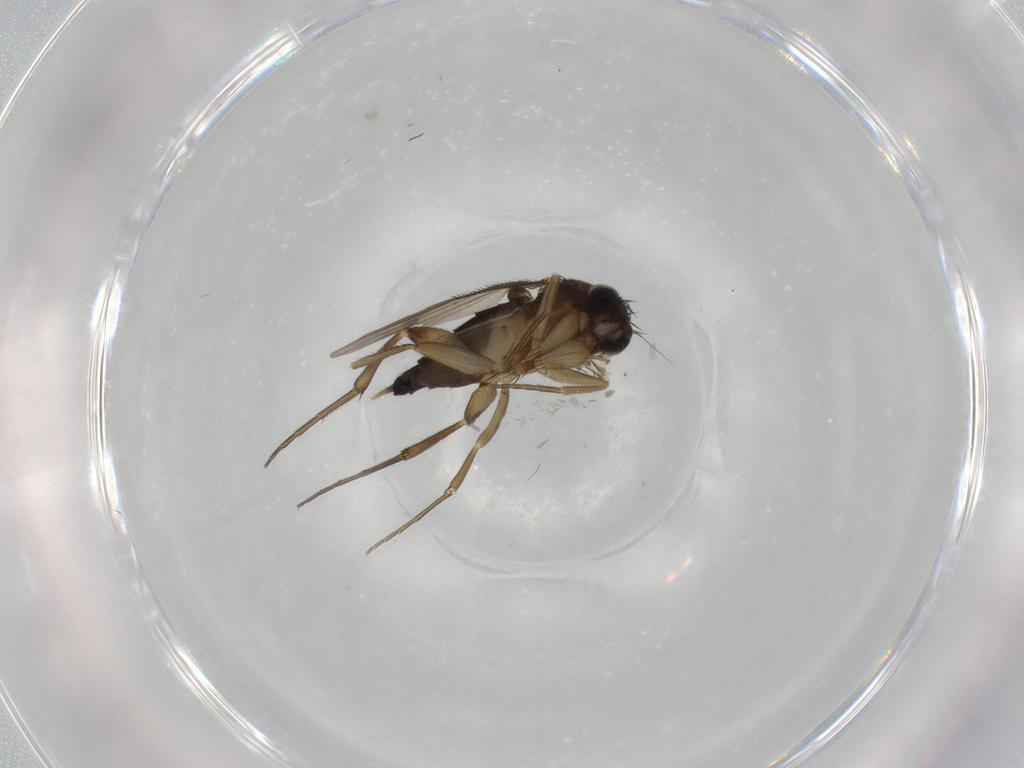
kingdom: Animalia
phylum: Arthropoda
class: Insecta
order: Diptera
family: Phoridae
